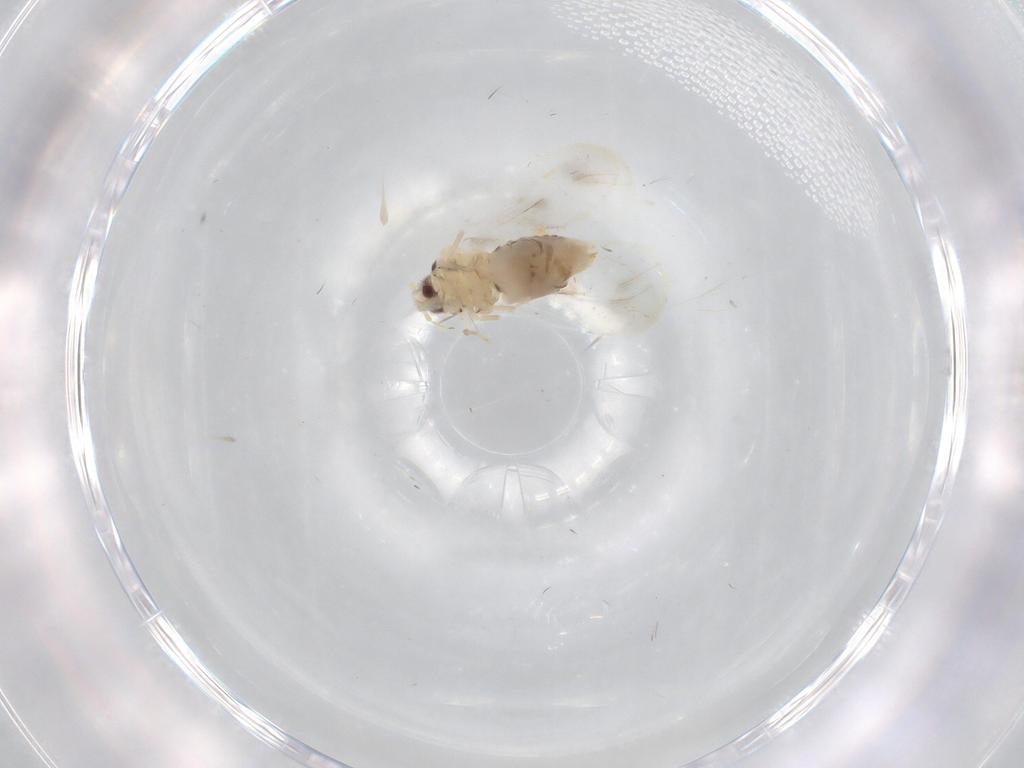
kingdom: Animalia
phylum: Arthropoda
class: Insecta
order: Hemiptera
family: Aleyrodidae
